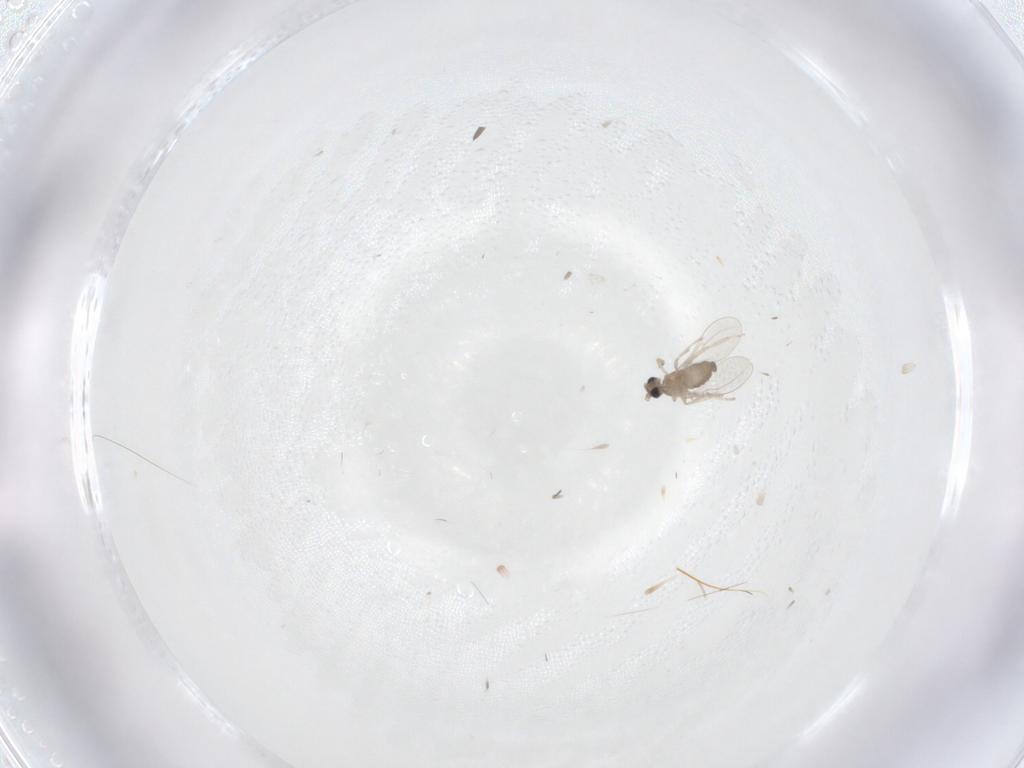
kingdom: Animalia
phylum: Arthropoda
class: Insecta
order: Diptera
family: Cecidomyiidae
